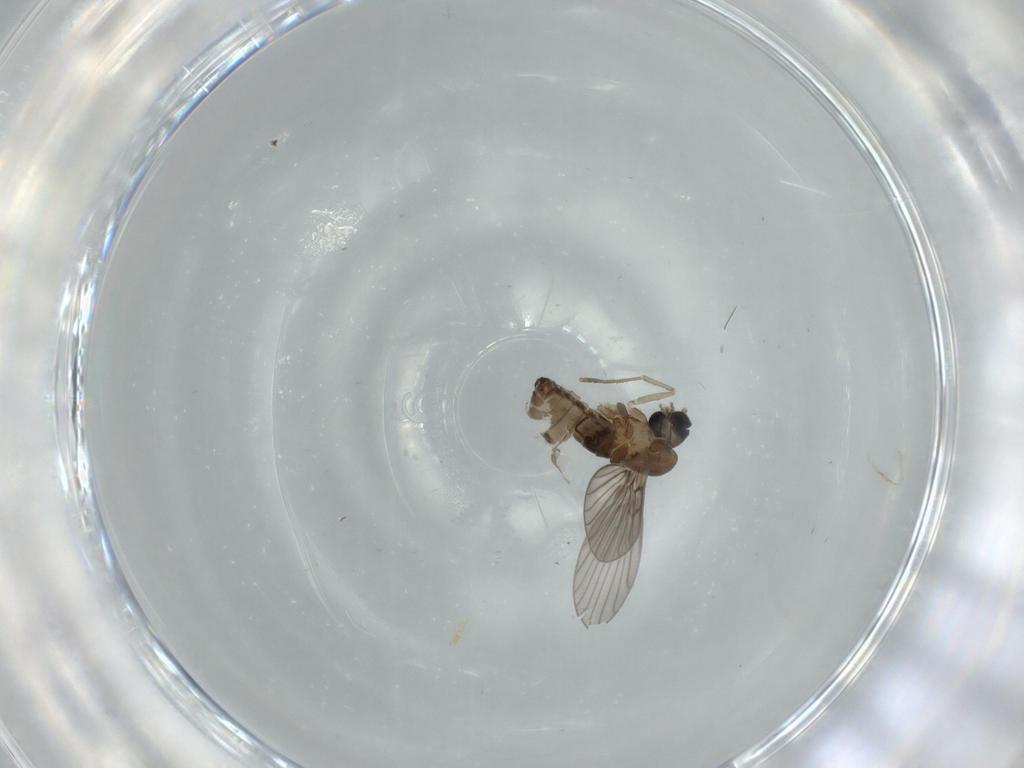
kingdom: Animalia
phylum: Arthropoda
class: Insecta
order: Diptera
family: Psychodidae
